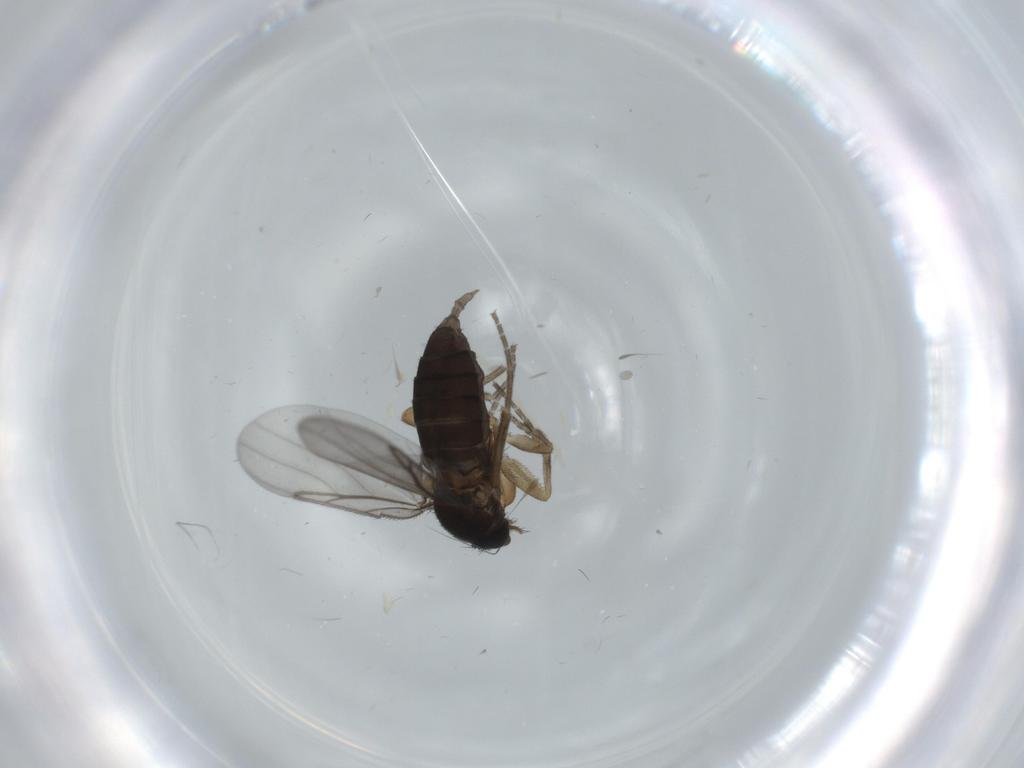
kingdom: Animalia
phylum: Arthropoda
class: Insecta
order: Diptera
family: Phoridae
